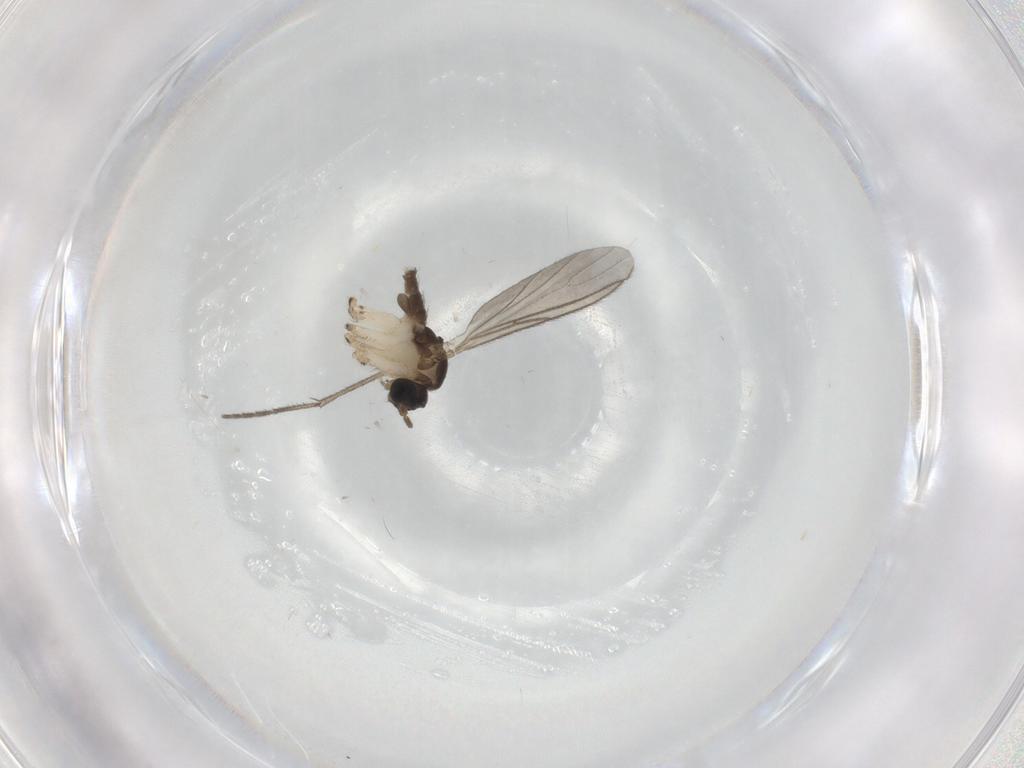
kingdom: Animalia
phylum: Arthropoda
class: Insecta
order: Diptera
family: Sciaridae
